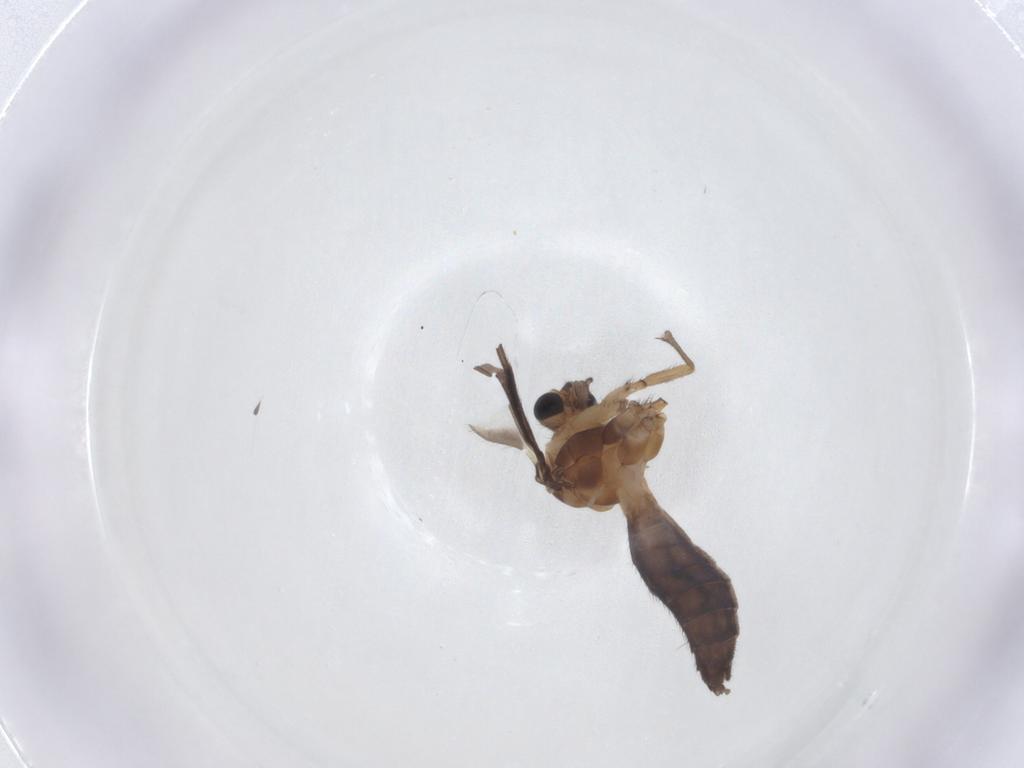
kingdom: Animalia
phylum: Arthropoda
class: Insecta
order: Diptera
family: Keroplatidae
